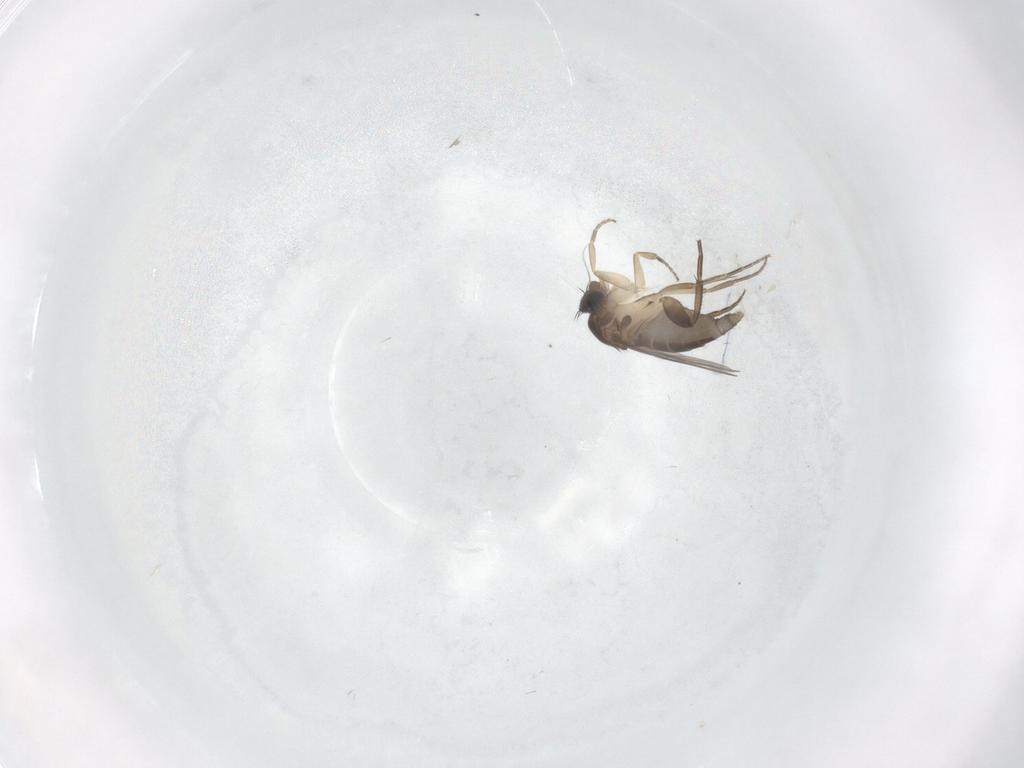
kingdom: Animalia
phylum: Arthropoda
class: Insecta
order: Diptera
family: Phoridae
